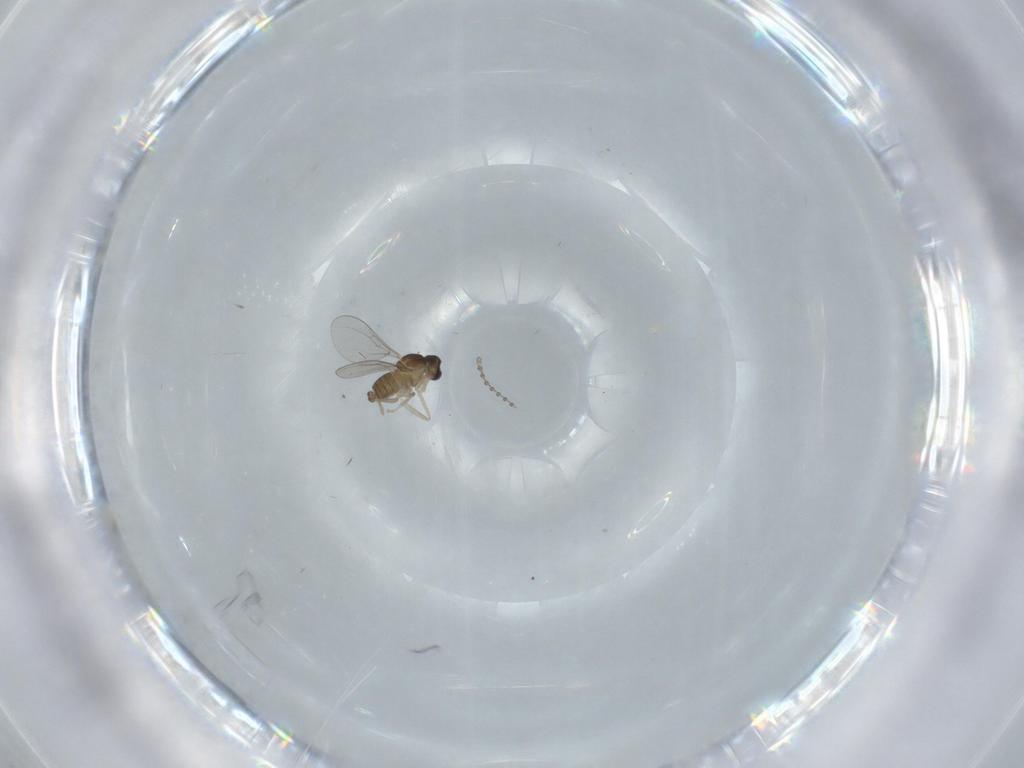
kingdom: Animalia
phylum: Arthropoda
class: Insecta
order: Diptera
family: Cecidomyiidae
